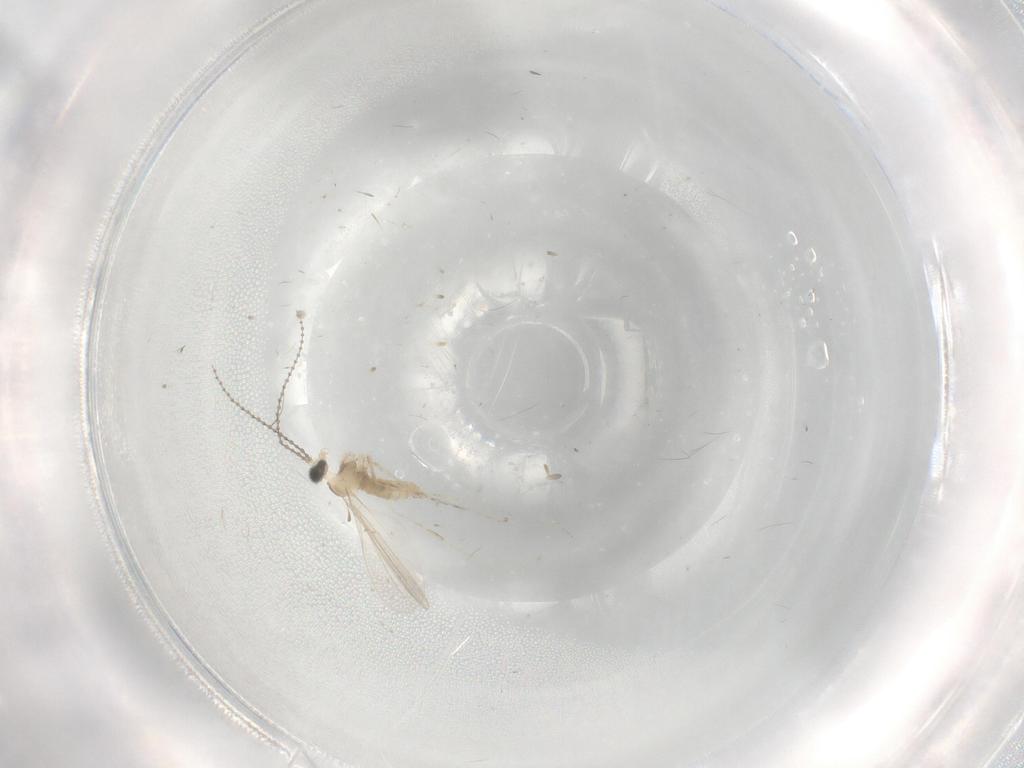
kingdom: Animalia
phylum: Arthropoda
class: Insecta
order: Diptera
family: Cecidomyiidae
